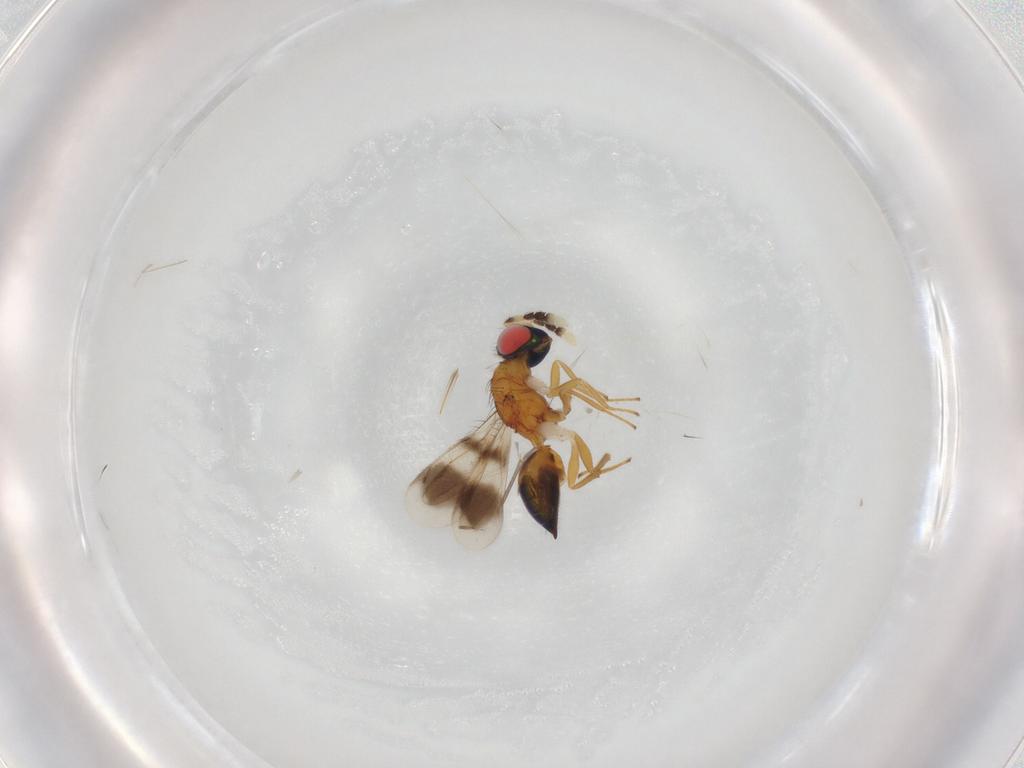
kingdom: Animalia
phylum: Arthropoda
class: Insecta
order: Hymenoptera
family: Eulophidae
